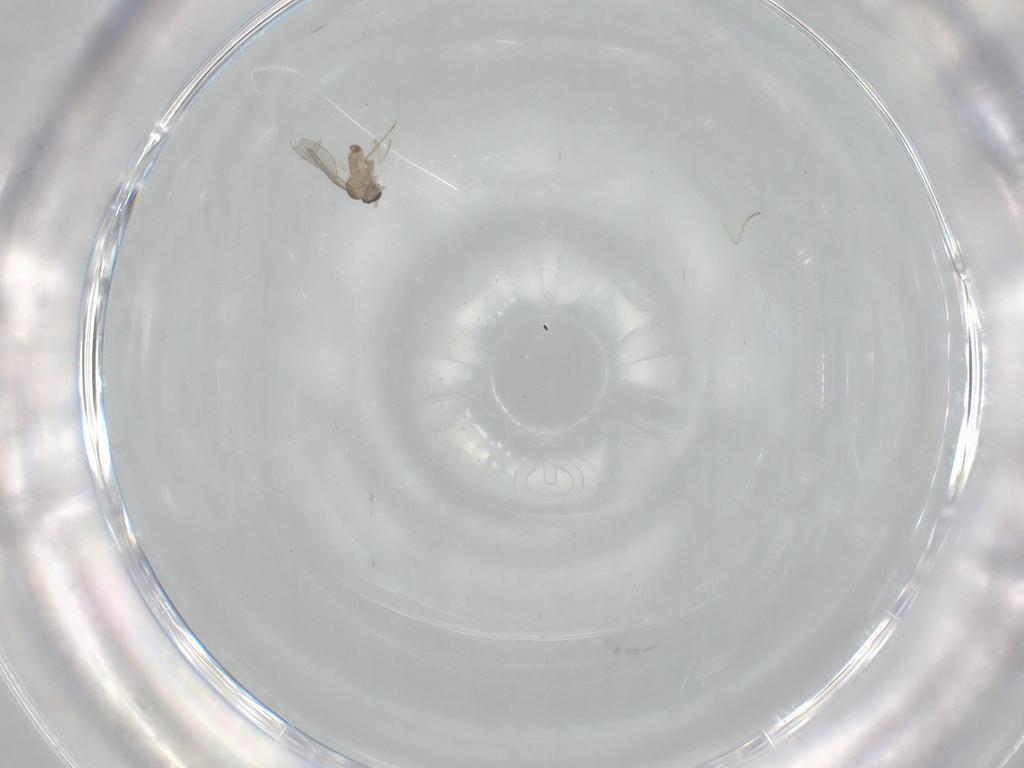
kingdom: Animalia
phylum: Arthropoda
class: Insecta
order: Diptera
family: Cecidomyiidae
